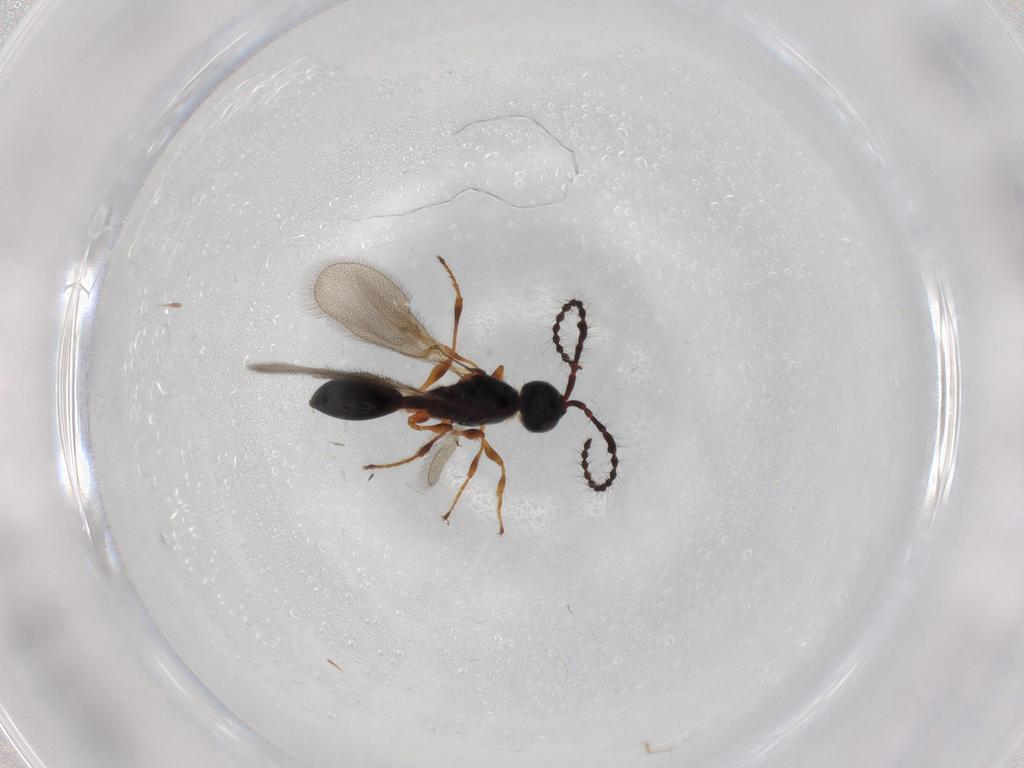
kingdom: Animalia
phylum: Arthropoda
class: Insecta
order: Hymenoptera
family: Diapriidae
